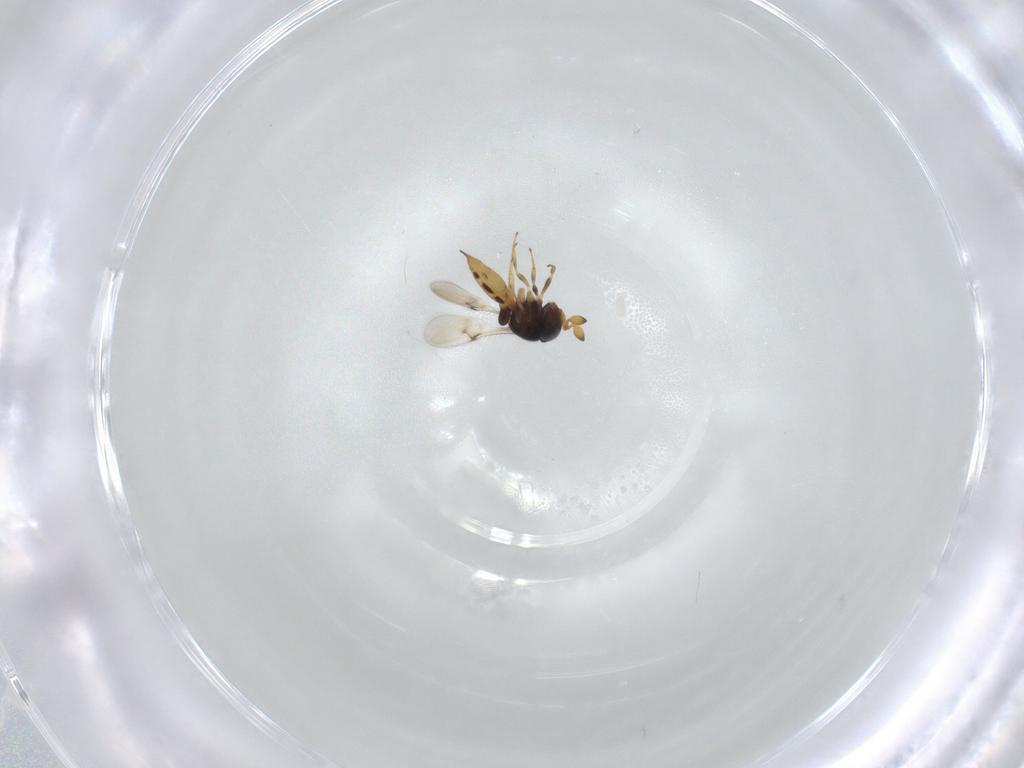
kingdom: Animalia
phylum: Arthropoda
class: Insecta
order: Hymenoptera
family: Scelionidae
